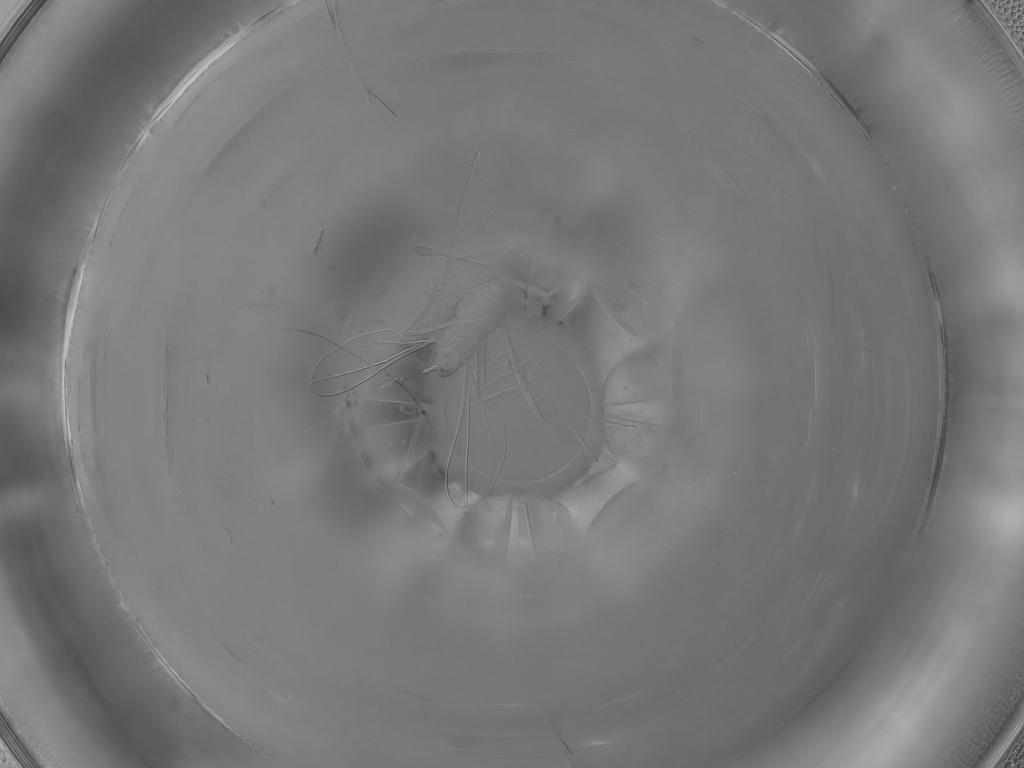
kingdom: Animalia
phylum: Arthropoda
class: Insecta
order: Diptera
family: Cecidomyiidae
